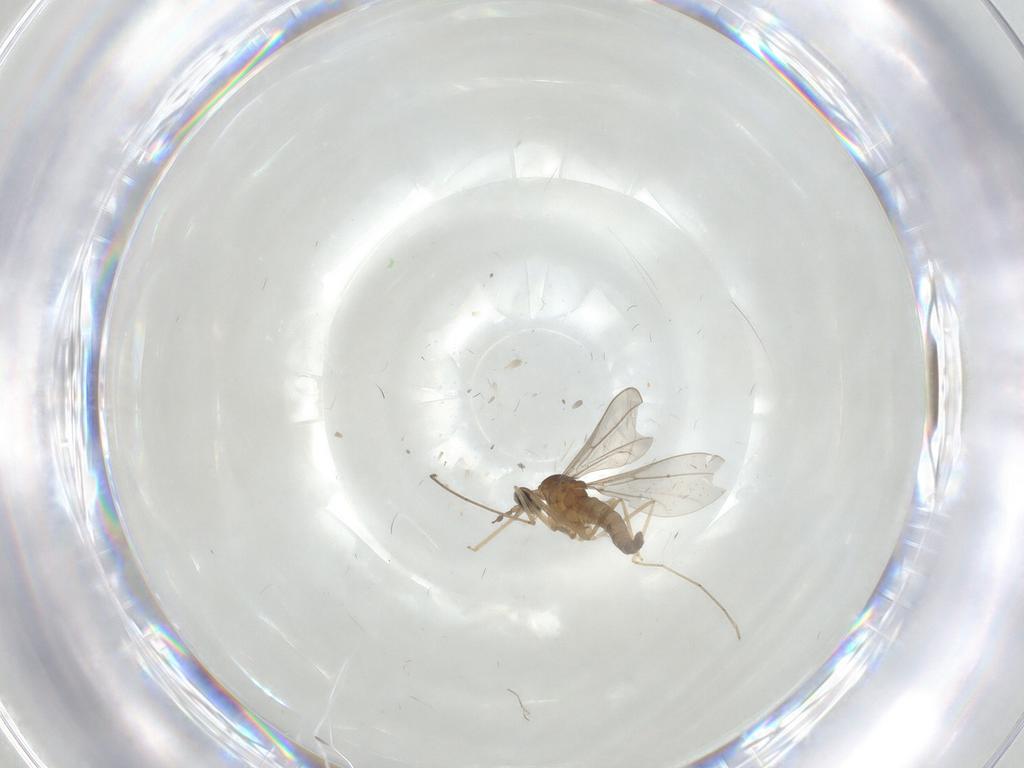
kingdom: Animalia
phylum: Arthropoda
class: Insecta
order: Diptera
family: Cecidomyiidae
